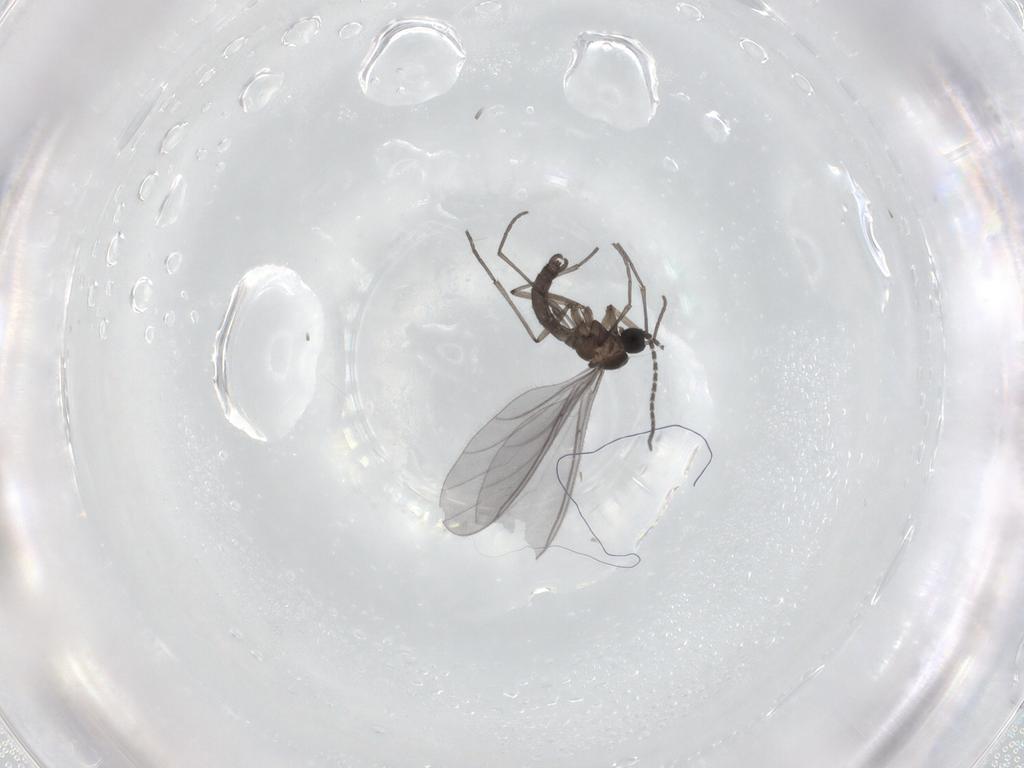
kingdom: Animalia
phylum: Arthropoda
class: Insecta
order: Diptera
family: Sciaridae
